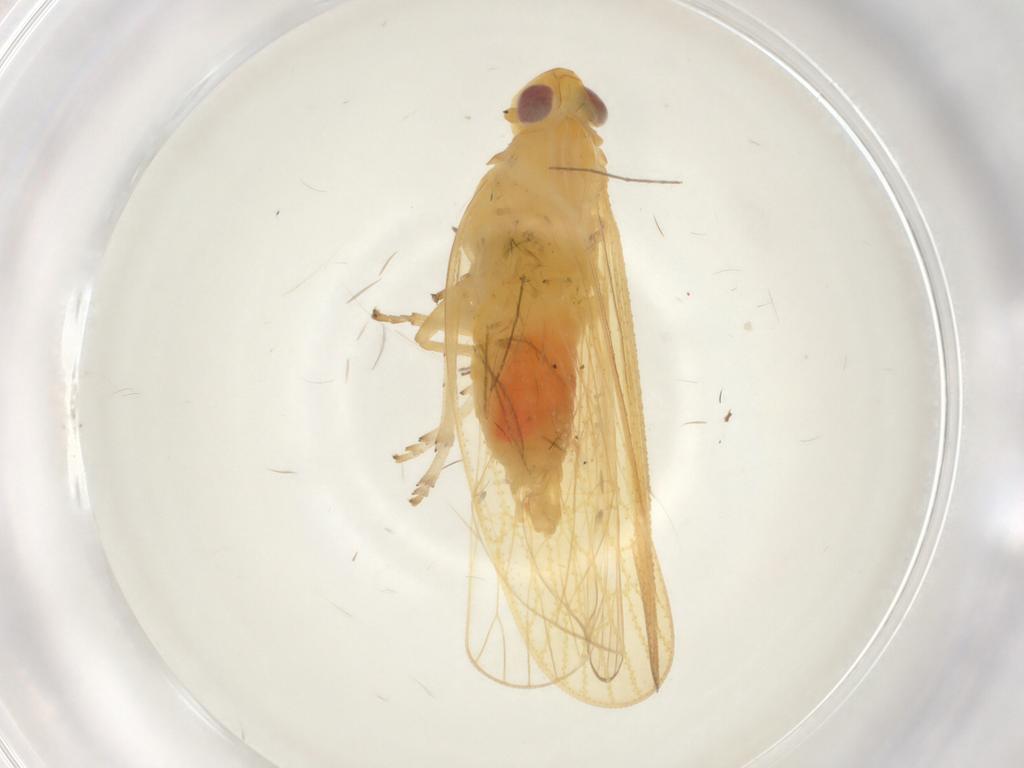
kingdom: Animalia
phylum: Arthropoda
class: Insecta
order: Hemiptera
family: Cixiidae
